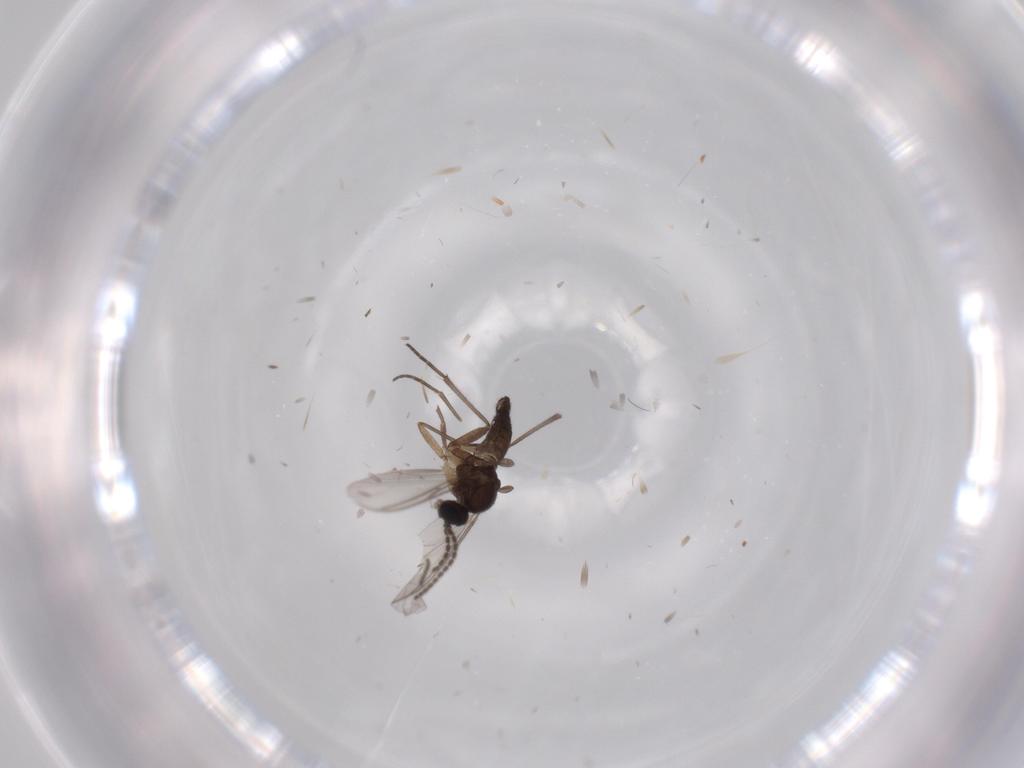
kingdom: Animalia
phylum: Arthropoda
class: Insecta
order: Diptera
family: Sciaridae
